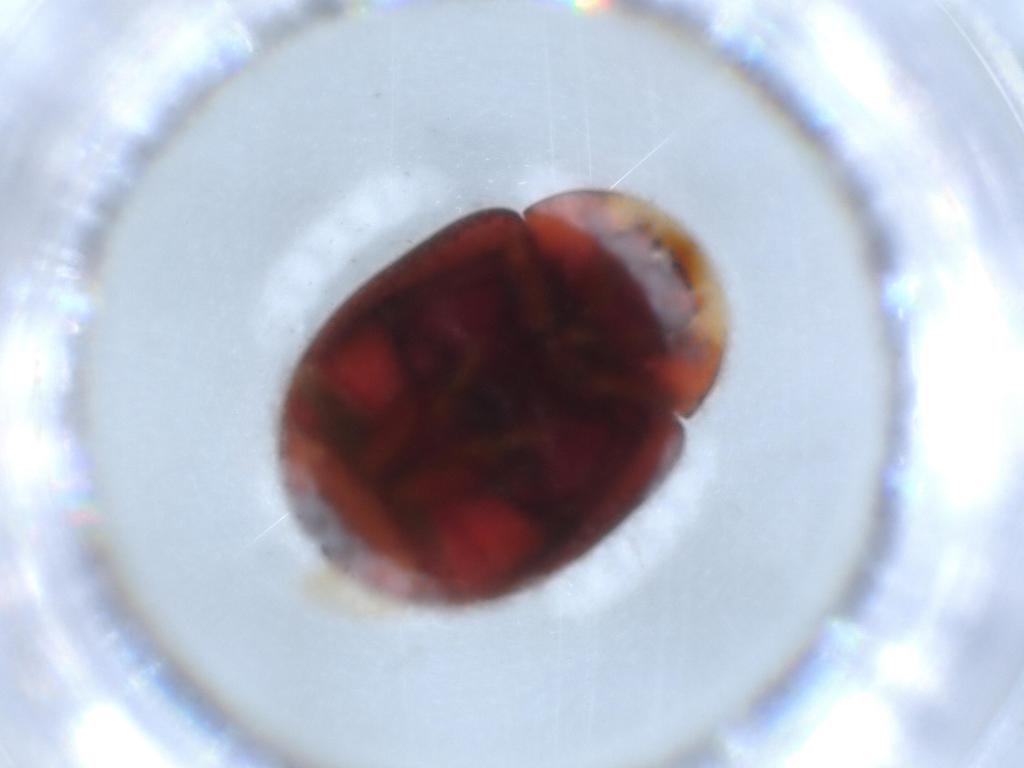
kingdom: Animalia
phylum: Arthropoda
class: Insecta
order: Coleoptera
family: Coccinellidae
